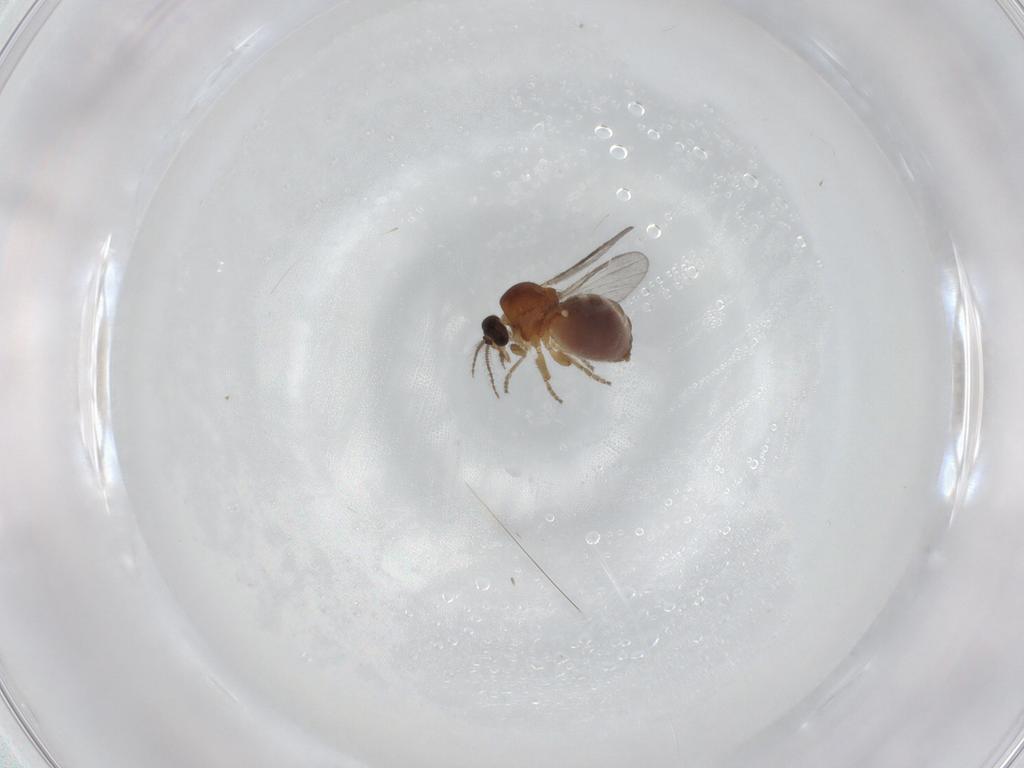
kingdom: Animalia
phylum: Arthropoda
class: Insecta
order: Diptera
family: Ceratopogonidae
